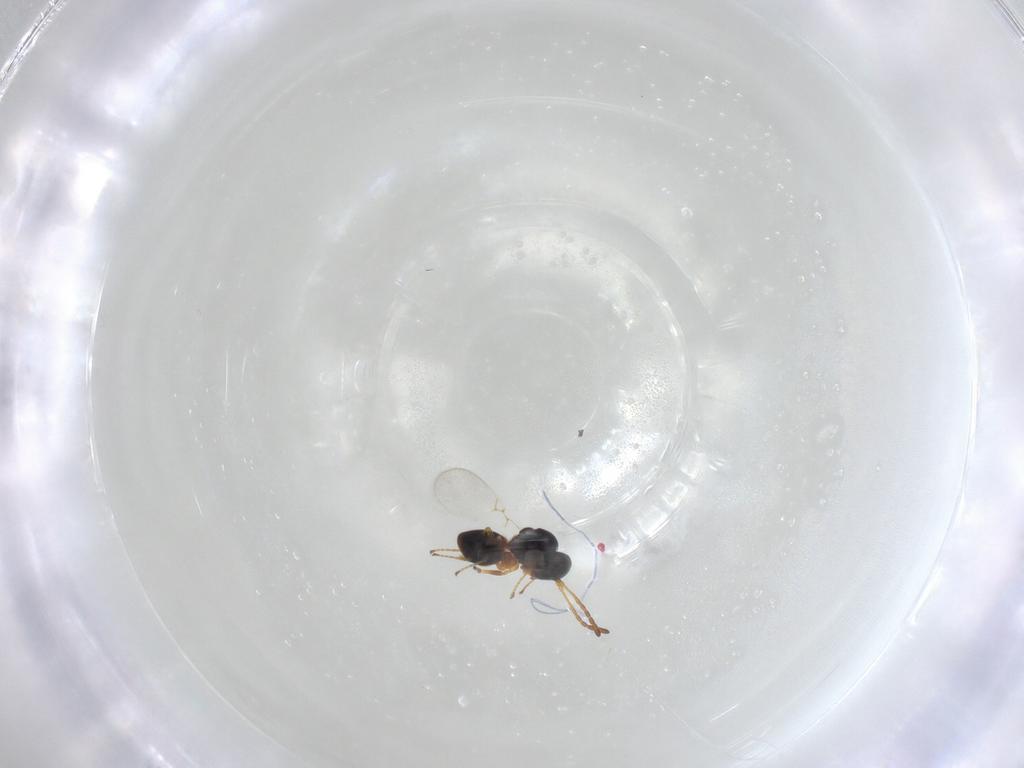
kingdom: Animalia
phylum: Arthropoda
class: Insecta
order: Hymenoptera
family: Figitidae
